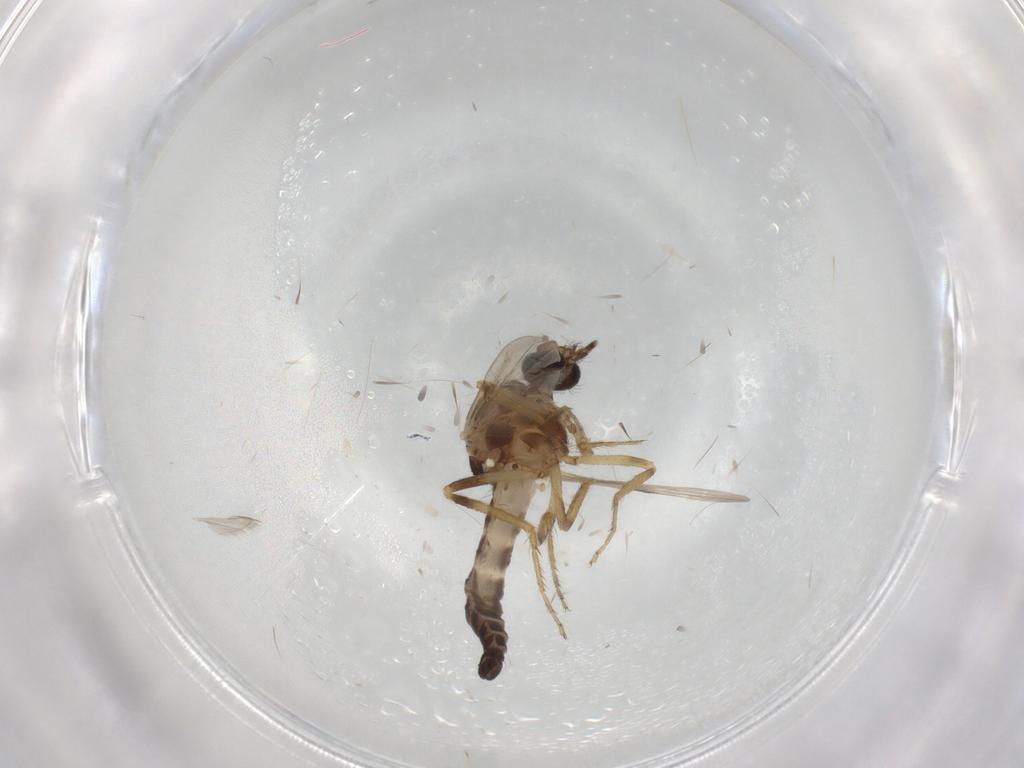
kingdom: Animalia
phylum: Arthropoda
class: Insecta
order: Diptera
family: Ceratopogonidae
